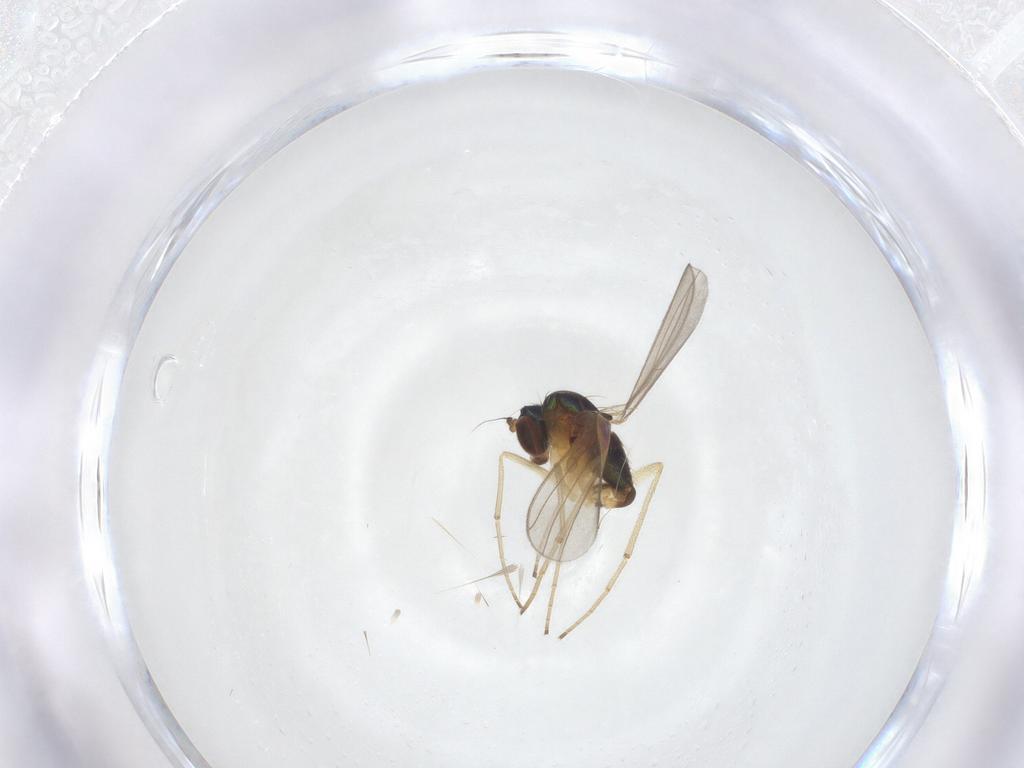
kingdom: Animalia
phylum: Arthropoda
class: Insecta
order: Diptera
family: Dolichopodidae
